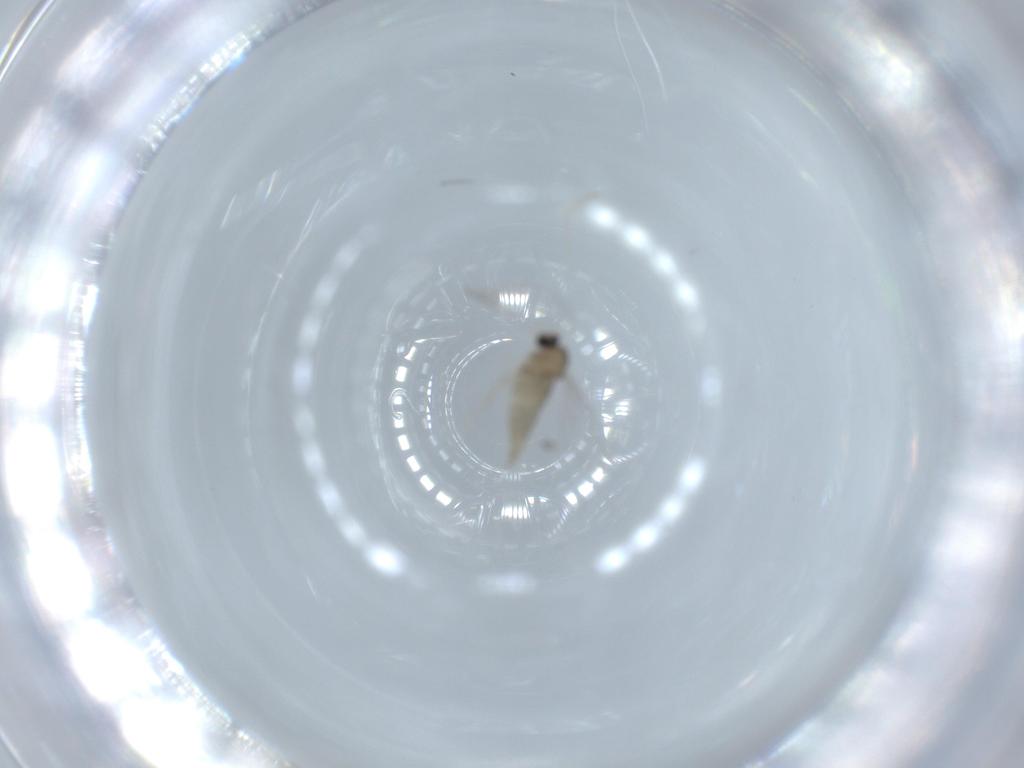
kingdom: Animalia
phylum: Arthropoda
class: Insecta
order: Diptera
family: Cecidomyiidae
